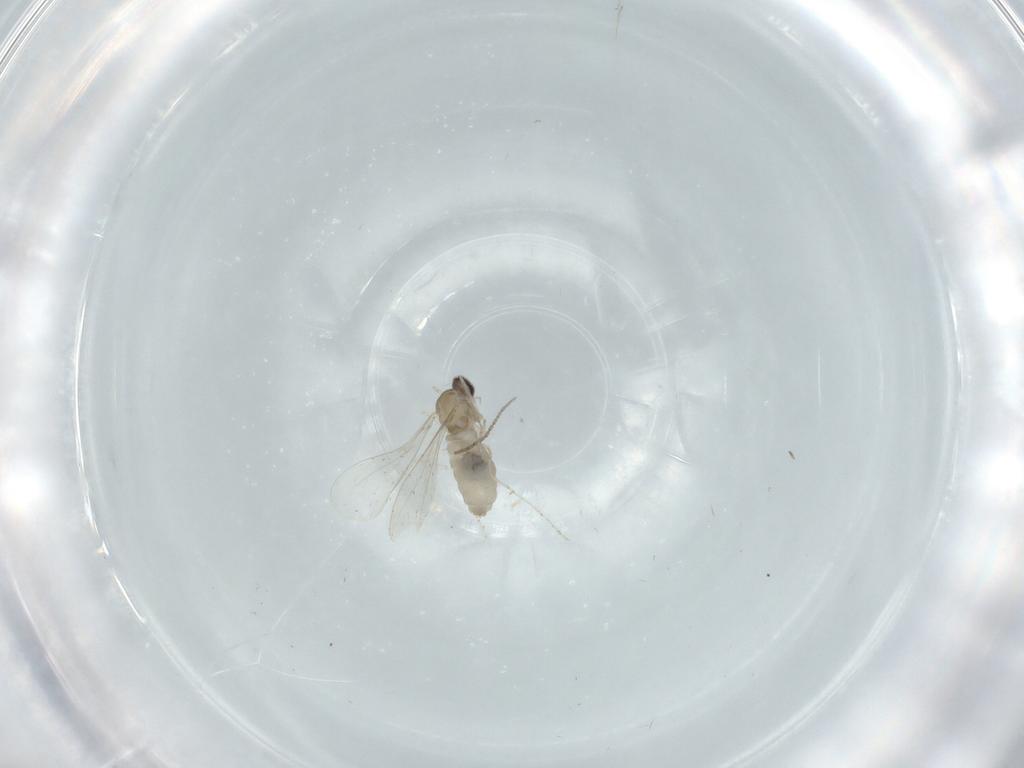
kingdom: Animalia
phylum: Arthropoda
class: Insecta
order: Diptera
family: Cecidomyiidae
